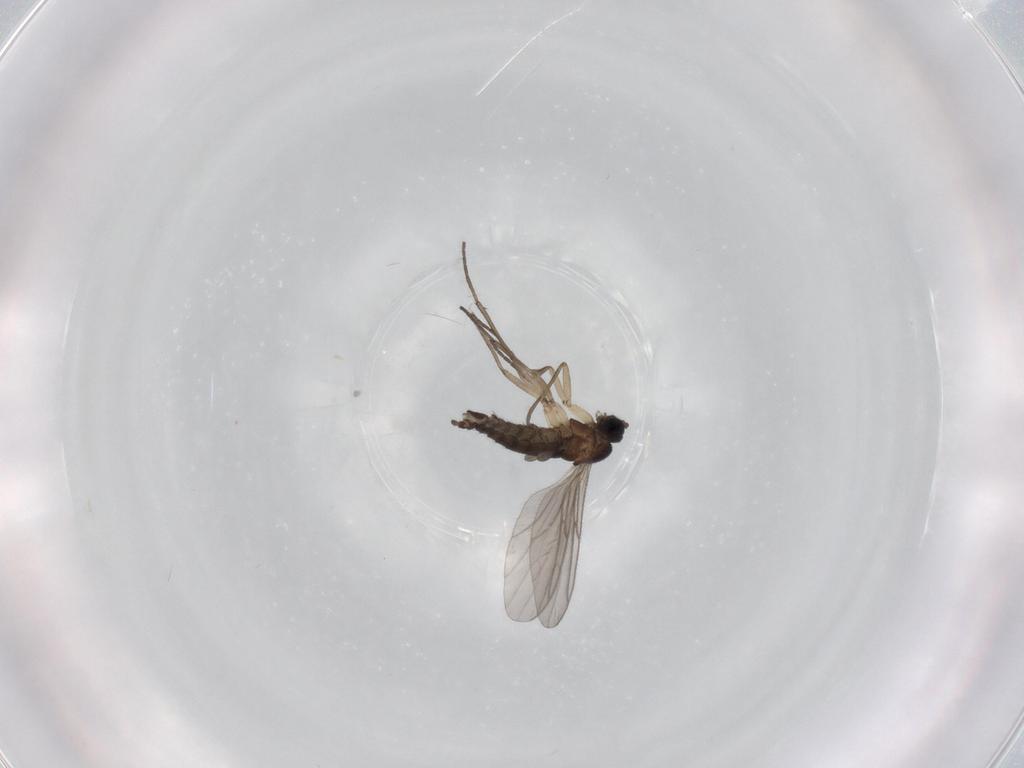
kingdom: Animalia
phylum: Arthropoda
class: Insecta
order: Diptera
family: Sciaridae
